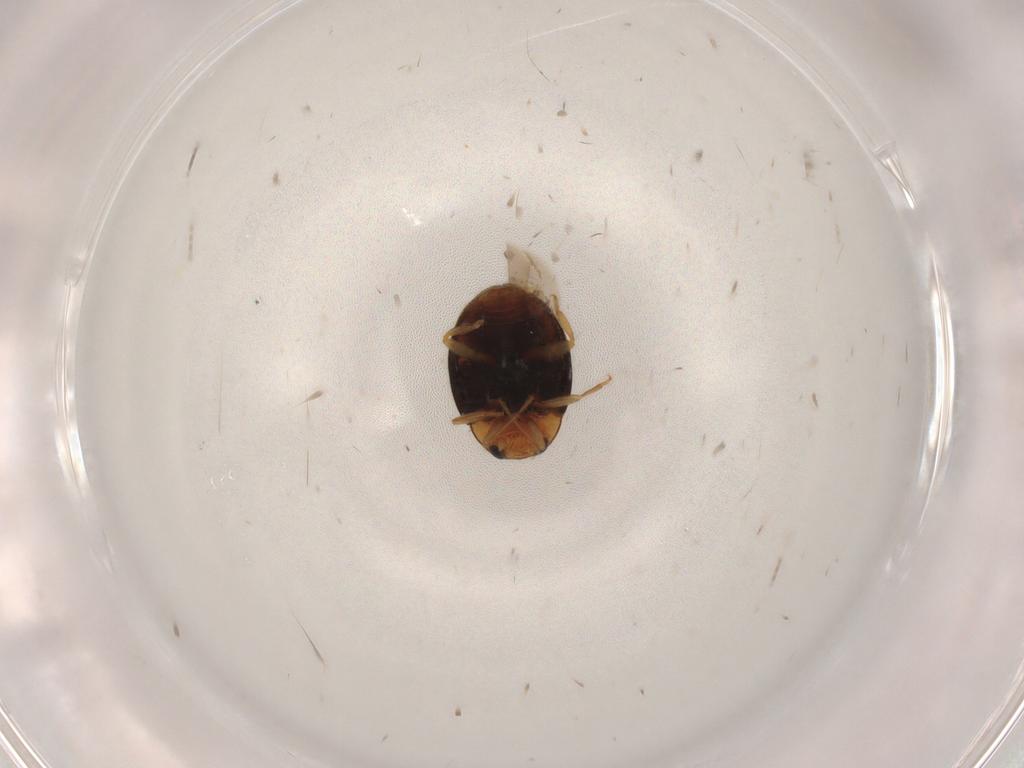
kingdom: Animalia
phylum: Arthropoda
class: Insecta
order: Coleoptera
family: Coccinellidae
